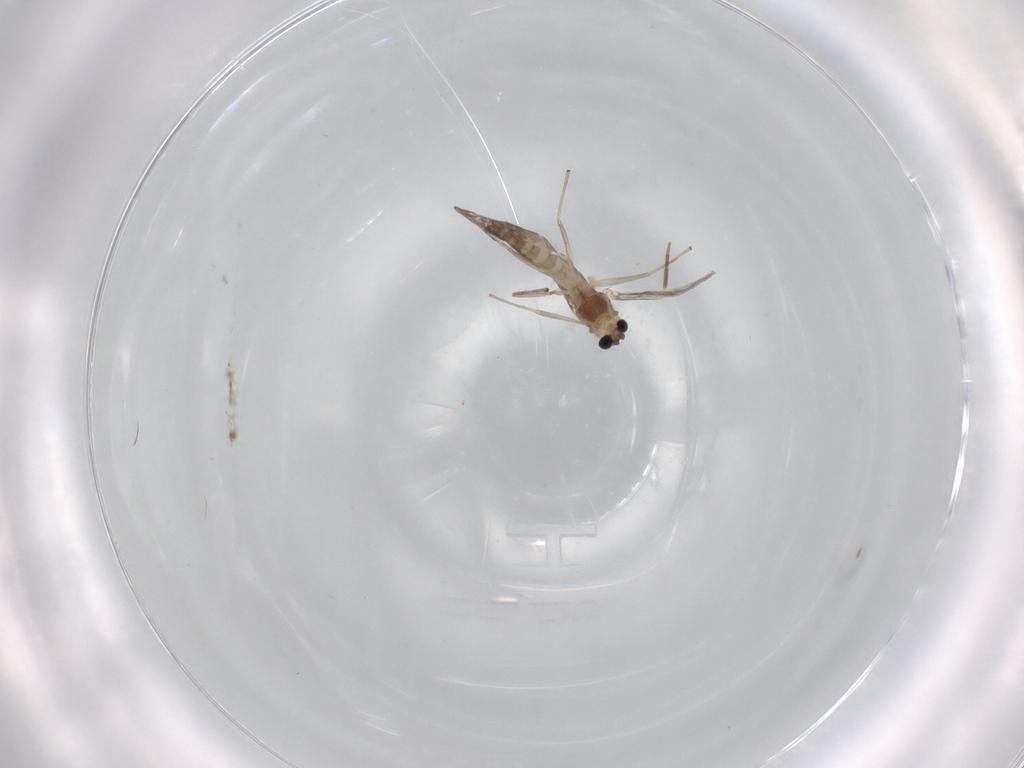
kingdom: Animalia
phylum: Arthropoda
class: Insecta
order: Diptera
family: Chironomidae
